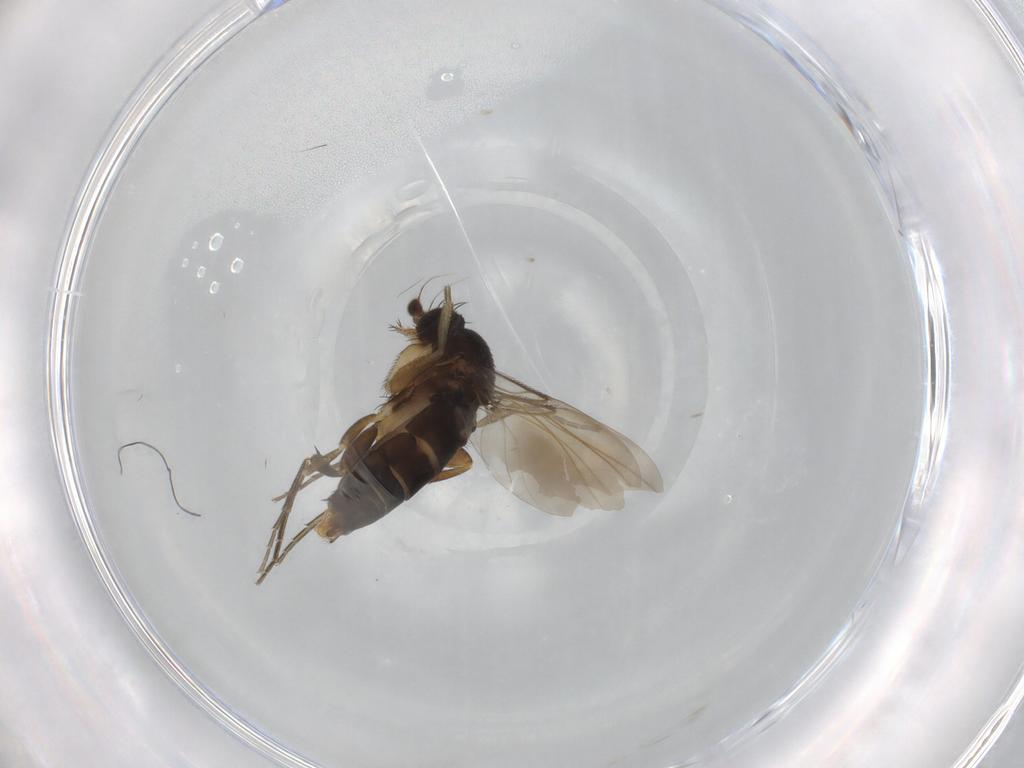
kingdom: Animalia
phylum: Arthropoda
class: Insecta
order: Diptera
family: Phoridae
